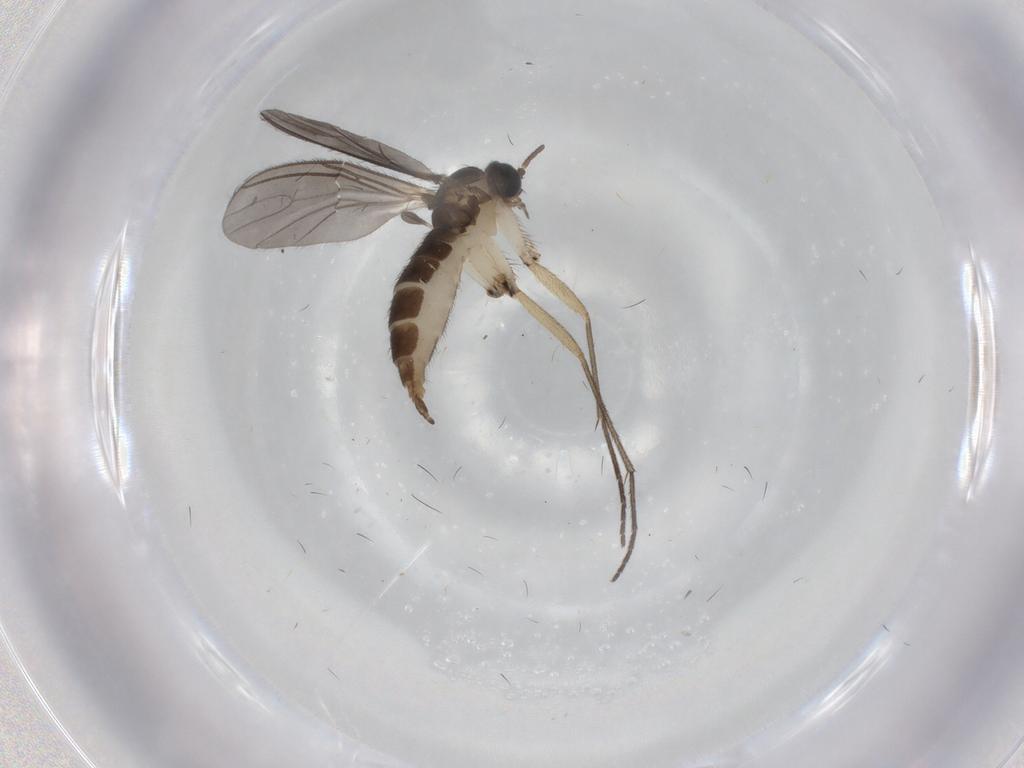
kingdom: Animalia
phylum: Arthropoda
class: Insecta
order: Diptera
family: Sciaridae
